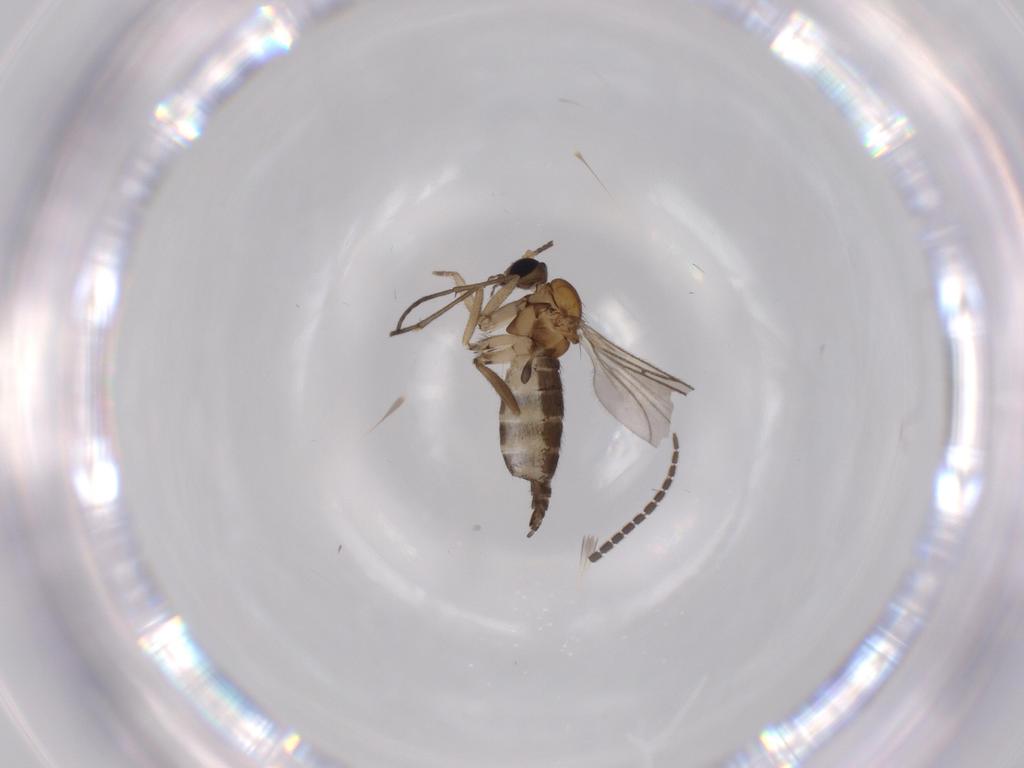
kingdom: Animalia
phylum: Arthropoda
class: Insecta
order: Diptera
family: Sciaridae
